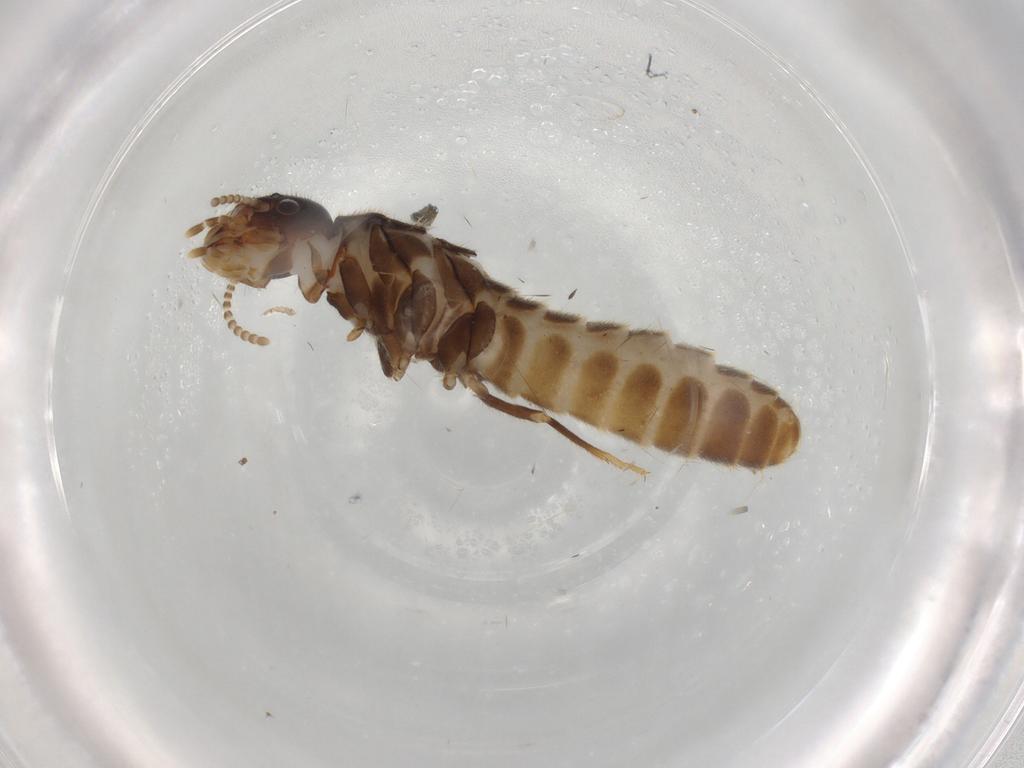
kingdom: Animalia
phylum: Arthropoda
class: Insecta
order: Blattodea
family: Termitidae
